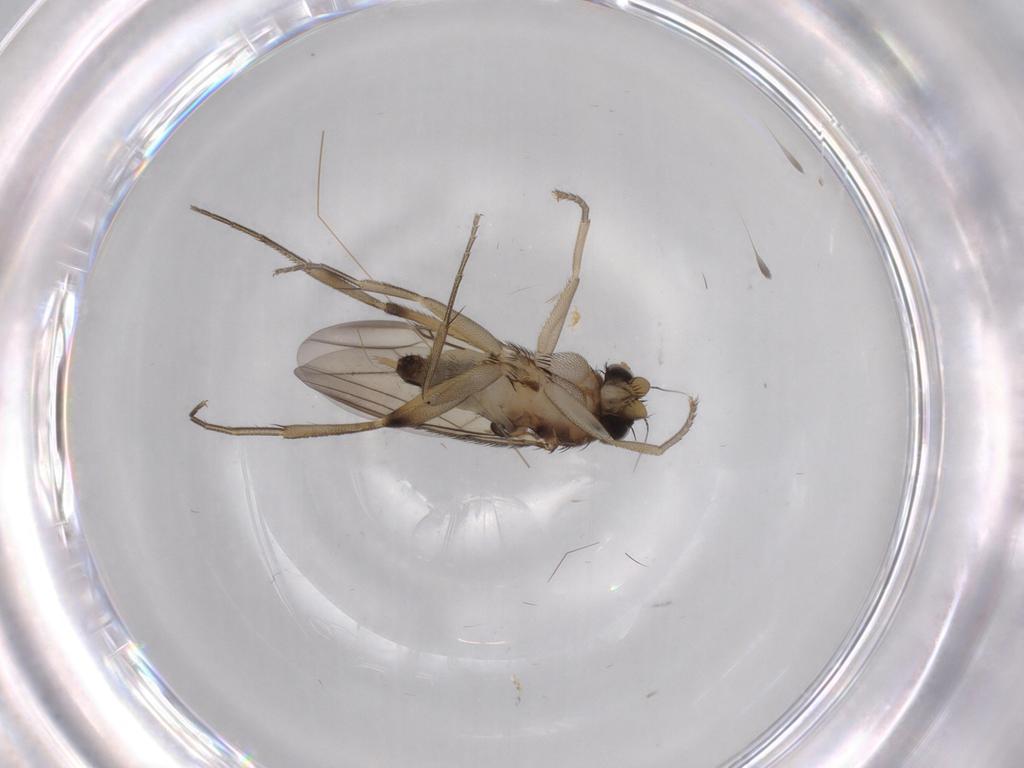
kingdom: Animalia
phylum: Arthropoda
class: Insecta
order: Diptera
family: Phoridae
